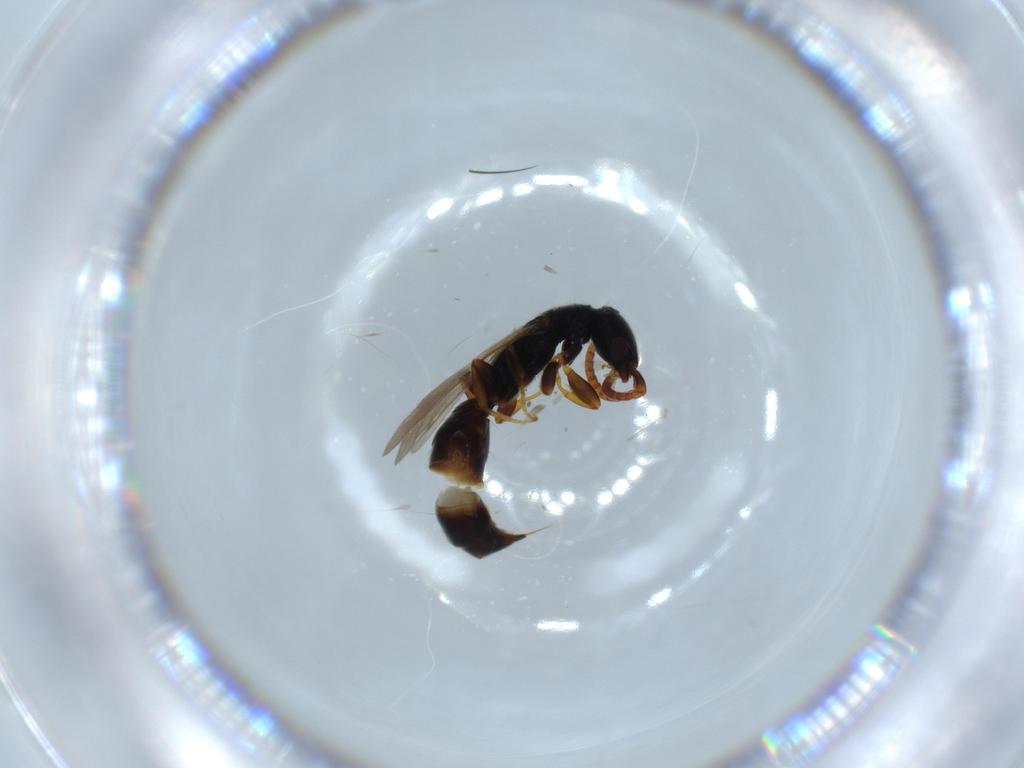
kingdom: Animalia
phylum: Arthropoda
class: Insecta
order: Hymenoptera
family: Bethylidae
